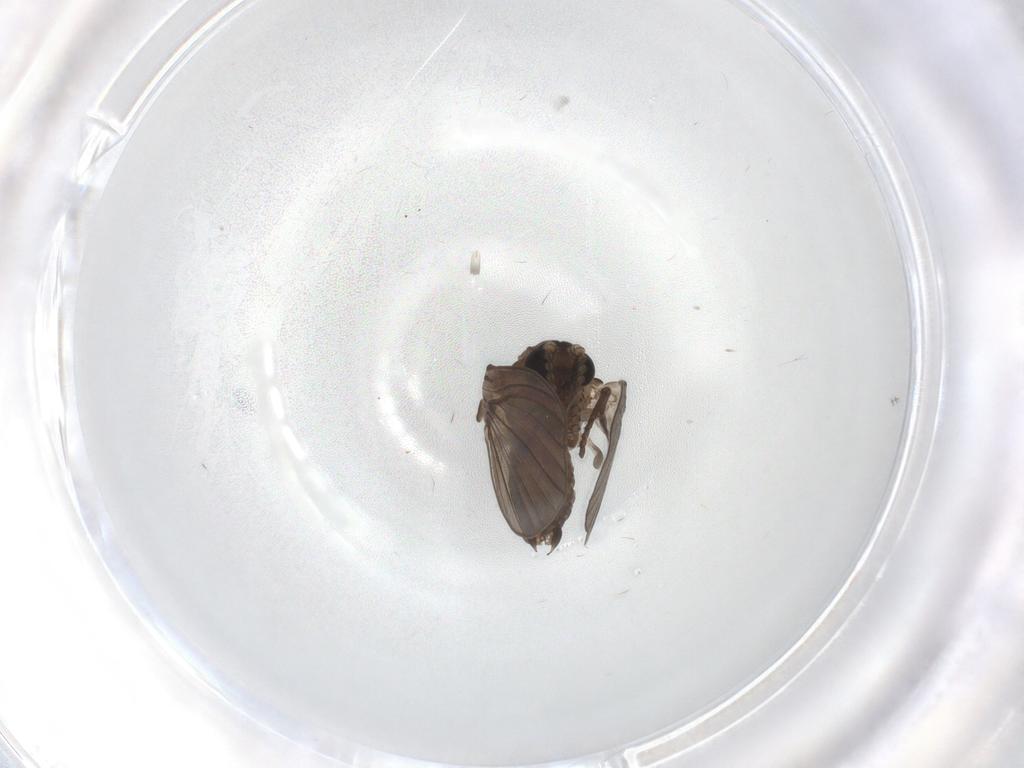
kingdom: Animalia
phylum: Arthropoda
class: Insecta
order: Diptera
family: Psychodidae
